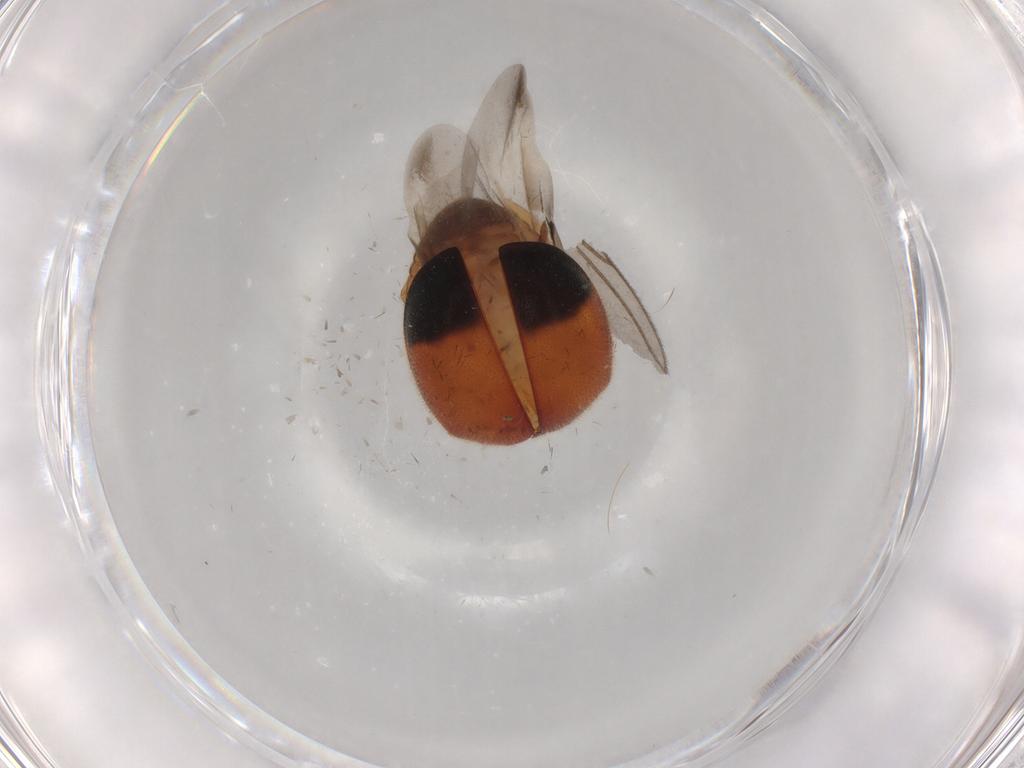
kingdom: Animalia
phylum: Arthropoda
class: Insecta
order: Coleoptera
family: Coccinellidae
